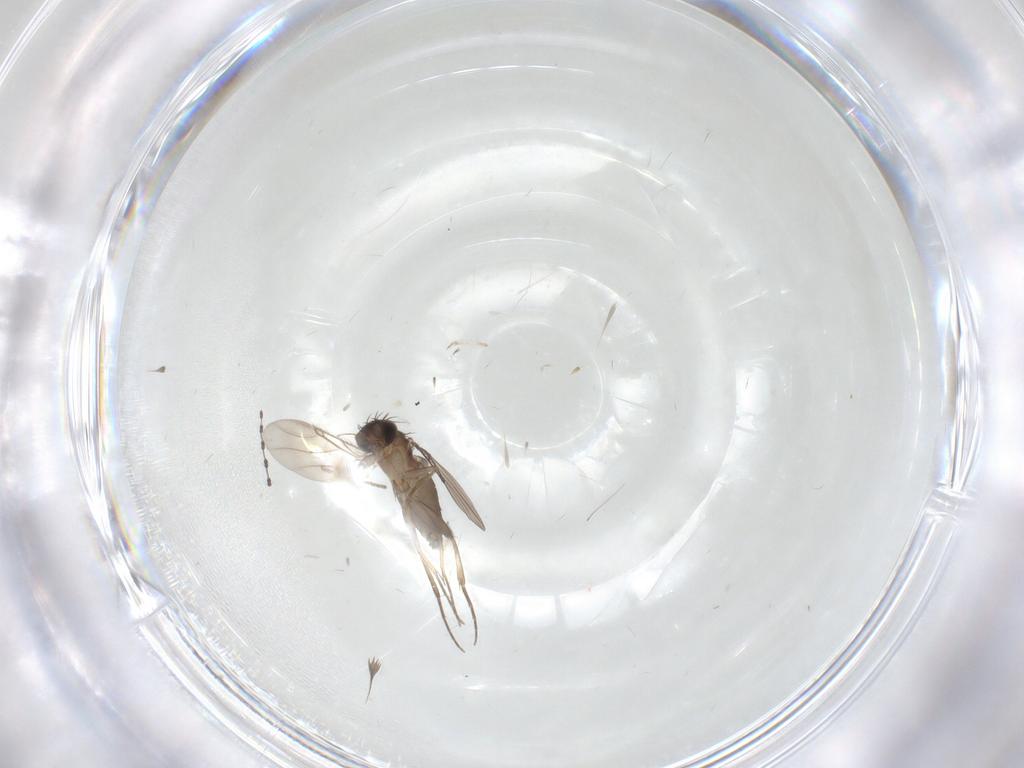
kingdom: Animalia
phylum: Arthropoda
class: Insecta
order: Diptera
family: Phoridae
